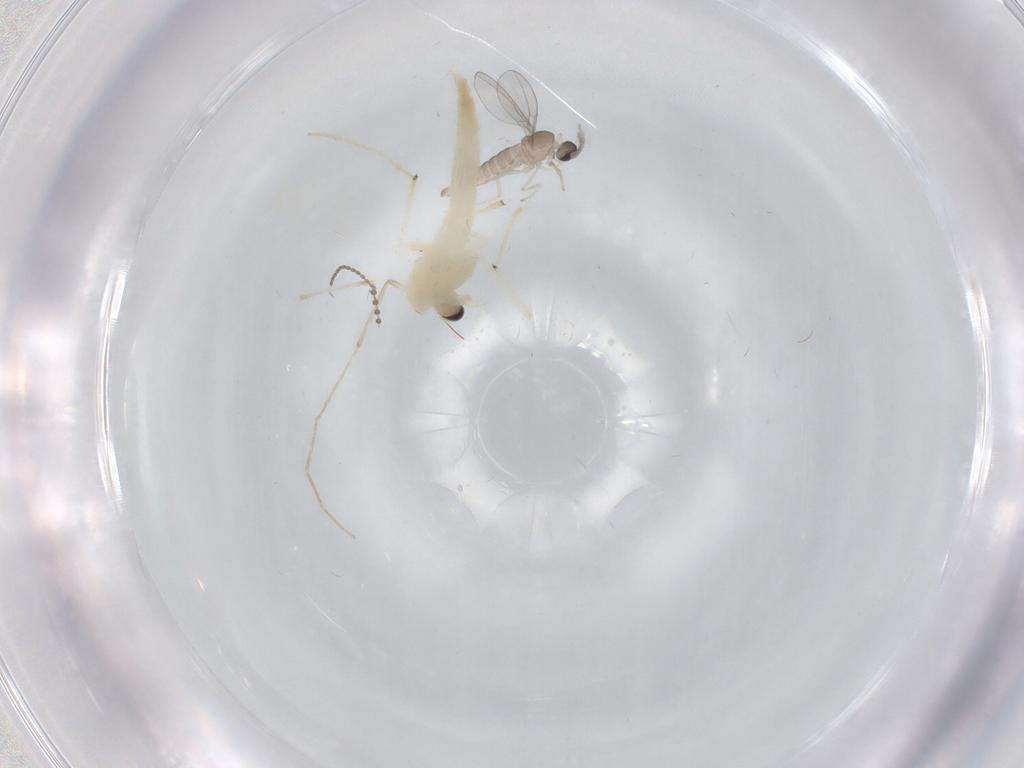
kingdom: Animalia
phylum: Arthropoda
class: Insecta
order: Diptera
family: Cecidomyiidae
